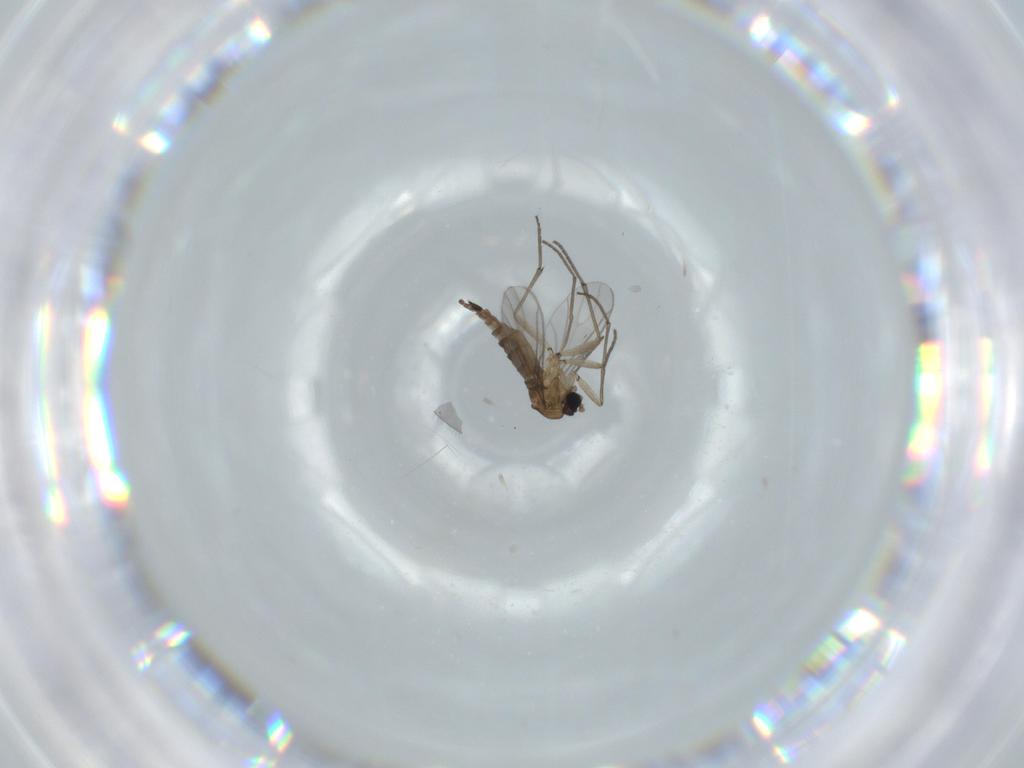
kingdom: Animalia
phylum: Arthropoda
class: Insecta
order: Diptera
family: Sciaridae
